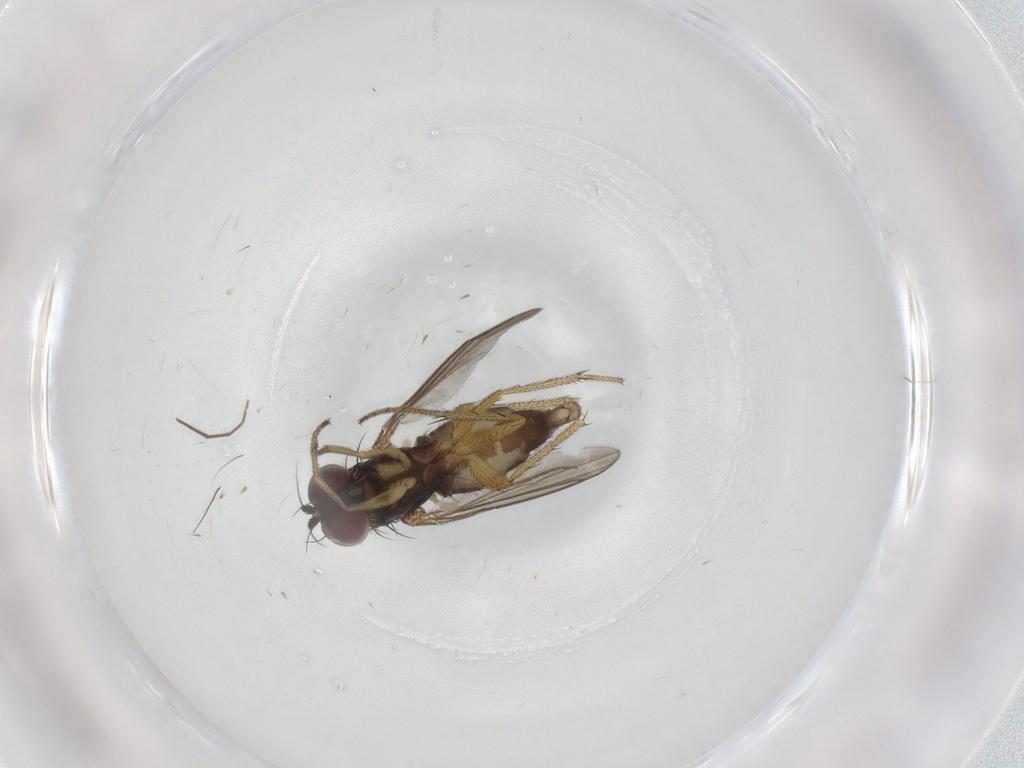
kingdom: Animalia
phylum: Arthropoda
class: Insecta
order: Diptera
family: Dolichopodidae
